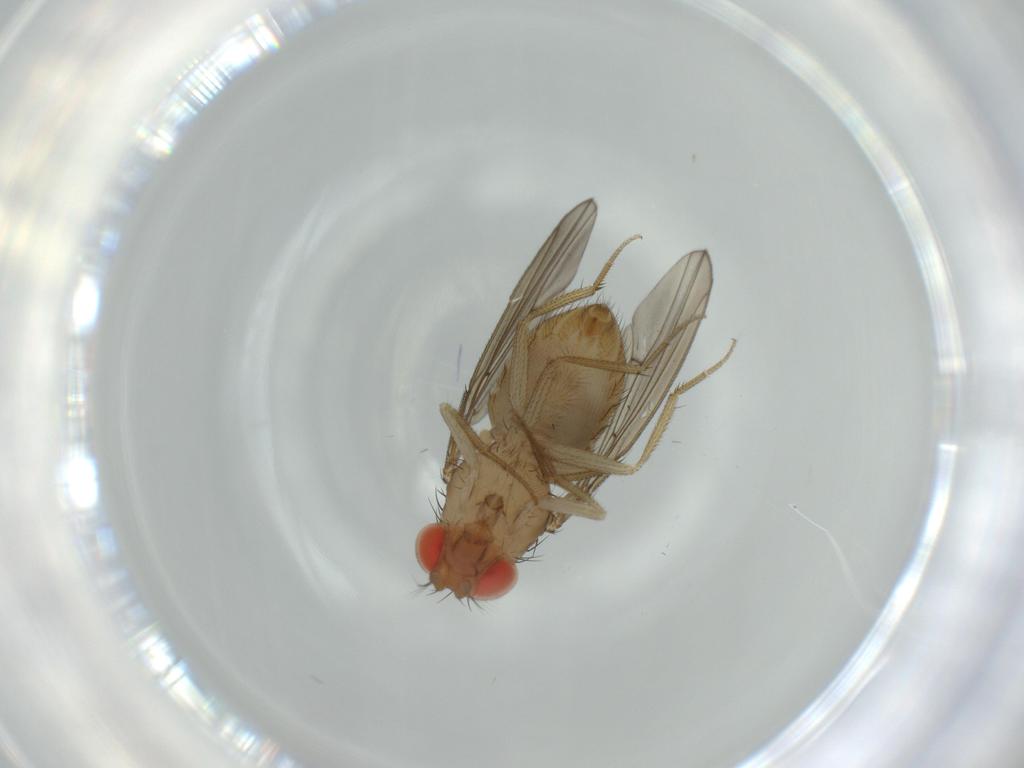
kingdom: Animalia
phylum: Arthropoda
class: Insecta
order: Diptera
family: Drosophilidae
